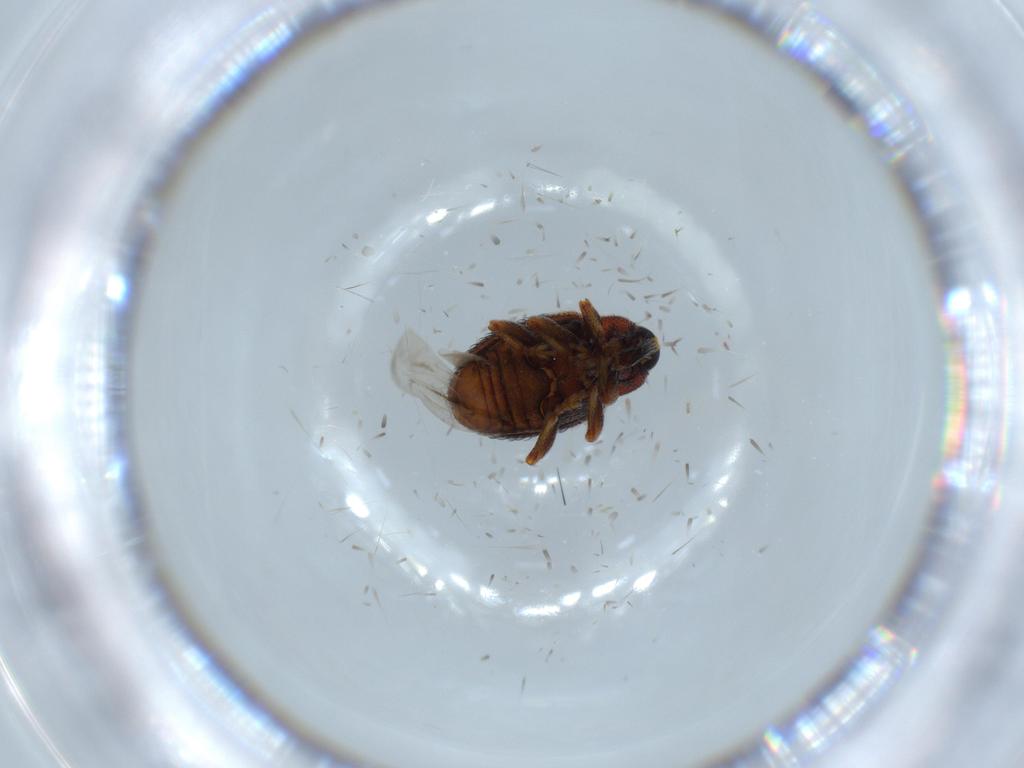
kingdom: Animalia
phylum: Arthropoda
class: Insecta
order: Coleoptera
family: Curculionidae
